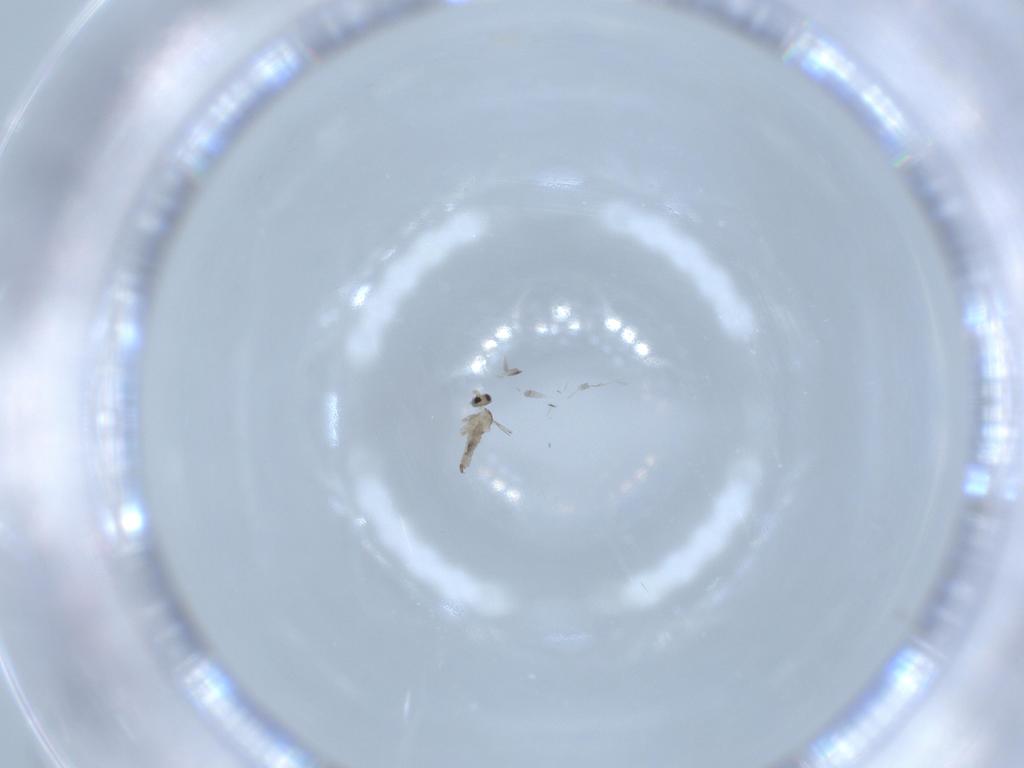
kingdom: Animalia
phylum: Arthropoda
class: Insecta
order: Diptera
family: Cecidomyiidae
